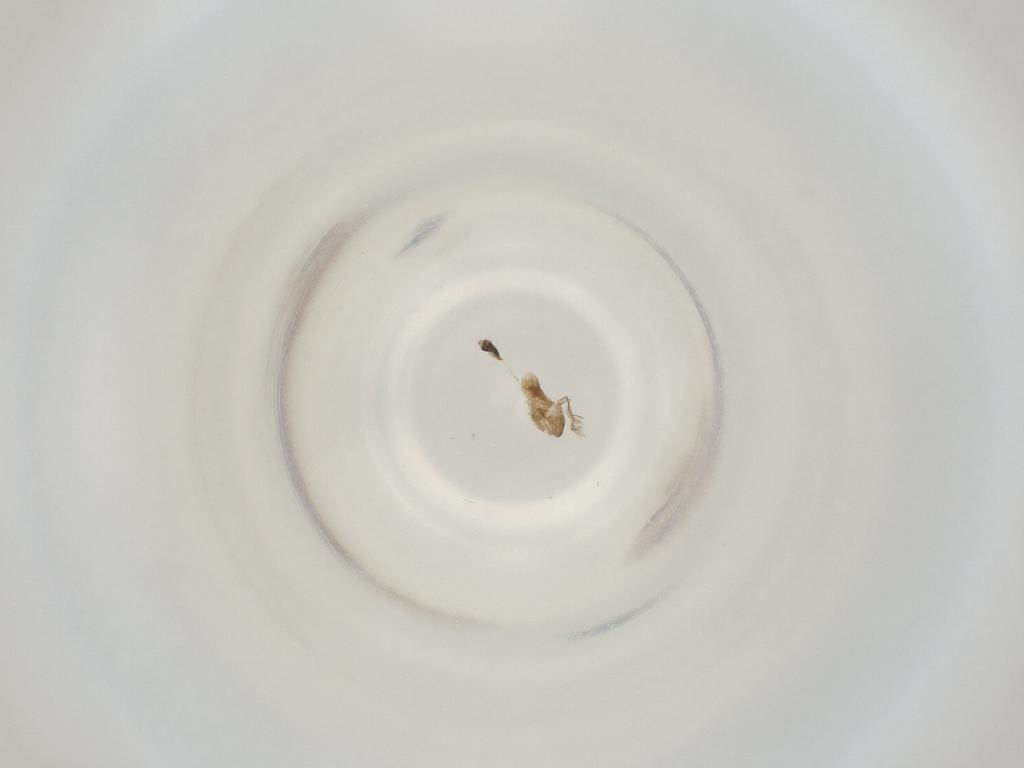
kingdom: Animalia
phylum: Arthropoda
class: Insecta
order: Diptera
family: Cecidomyiidae
